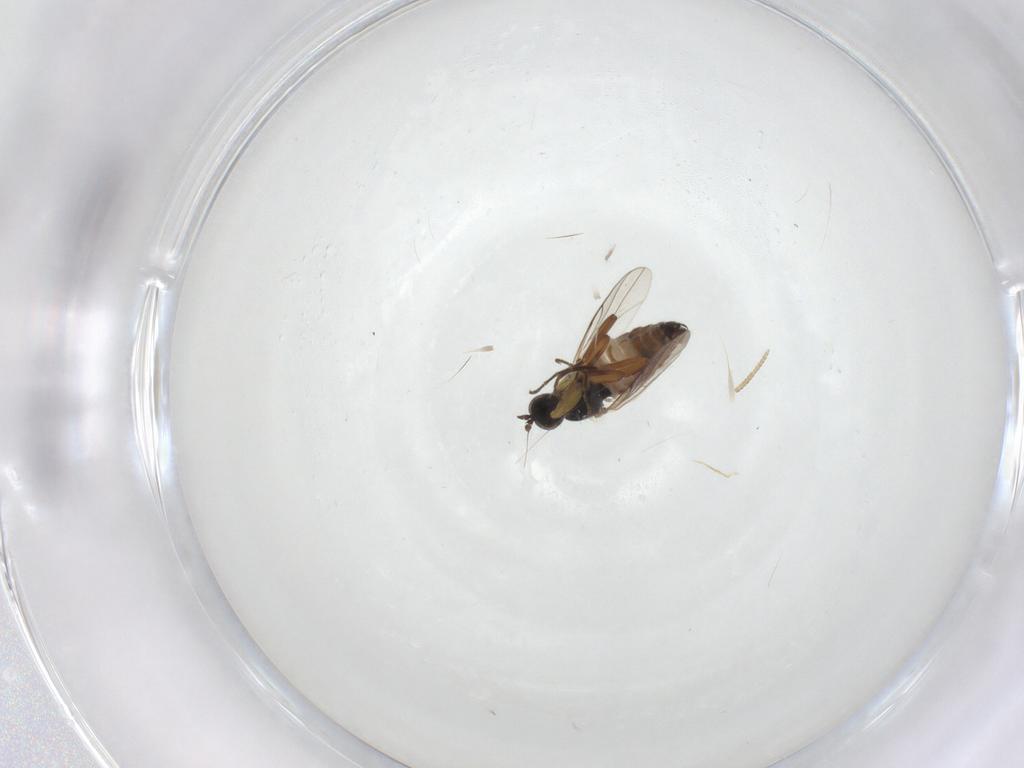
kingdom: Animalia
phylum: Arthropoda
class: Insecta
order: Diptera
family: Hybotidae
